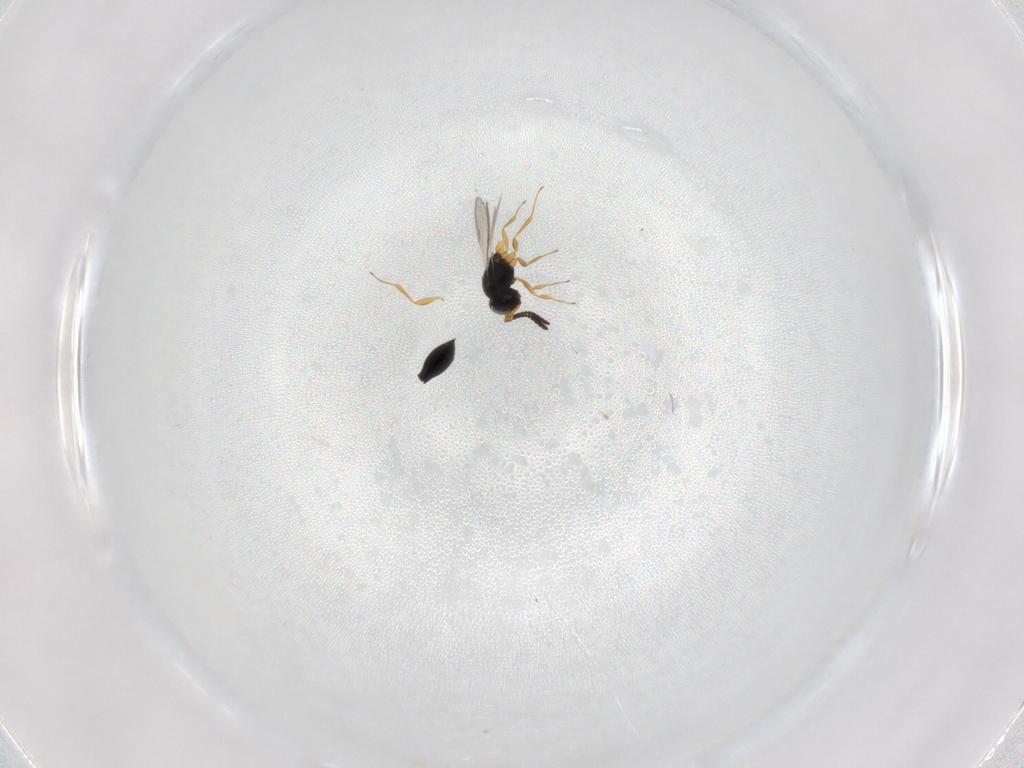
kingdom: Animalia
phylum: Arthropoda
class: Insecta
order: Hymenoptera
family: Scelionidae
